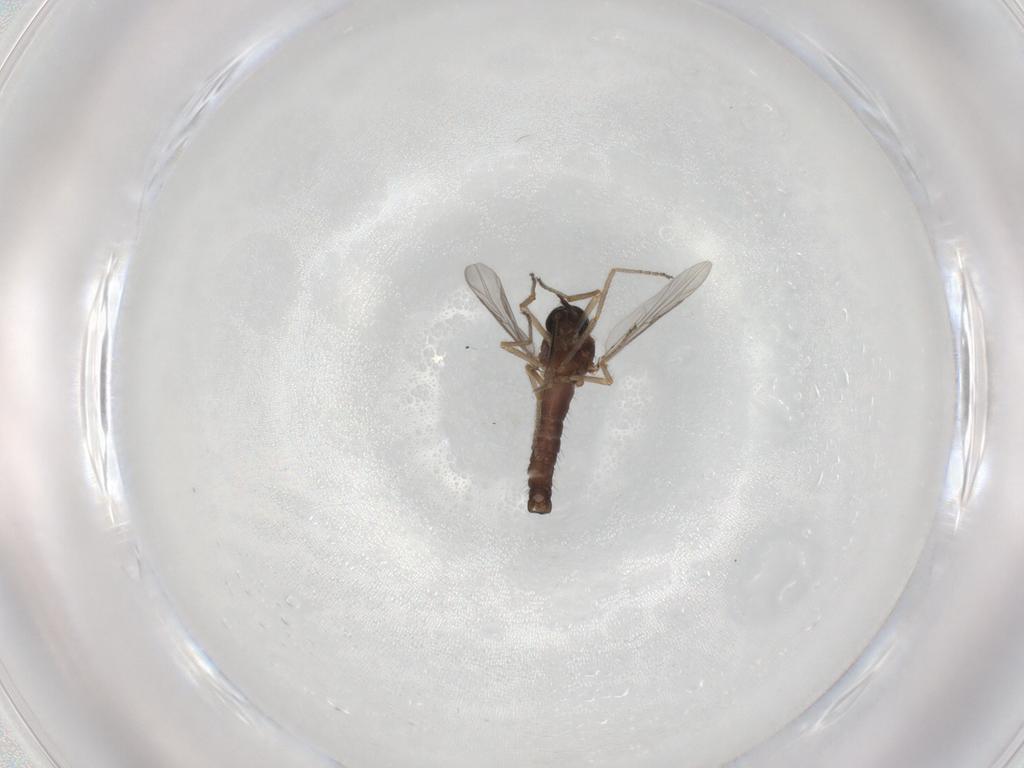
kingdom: Animalia
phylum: Arthropoda
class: Insecta
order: Diptera
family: Ceratopogonidae
